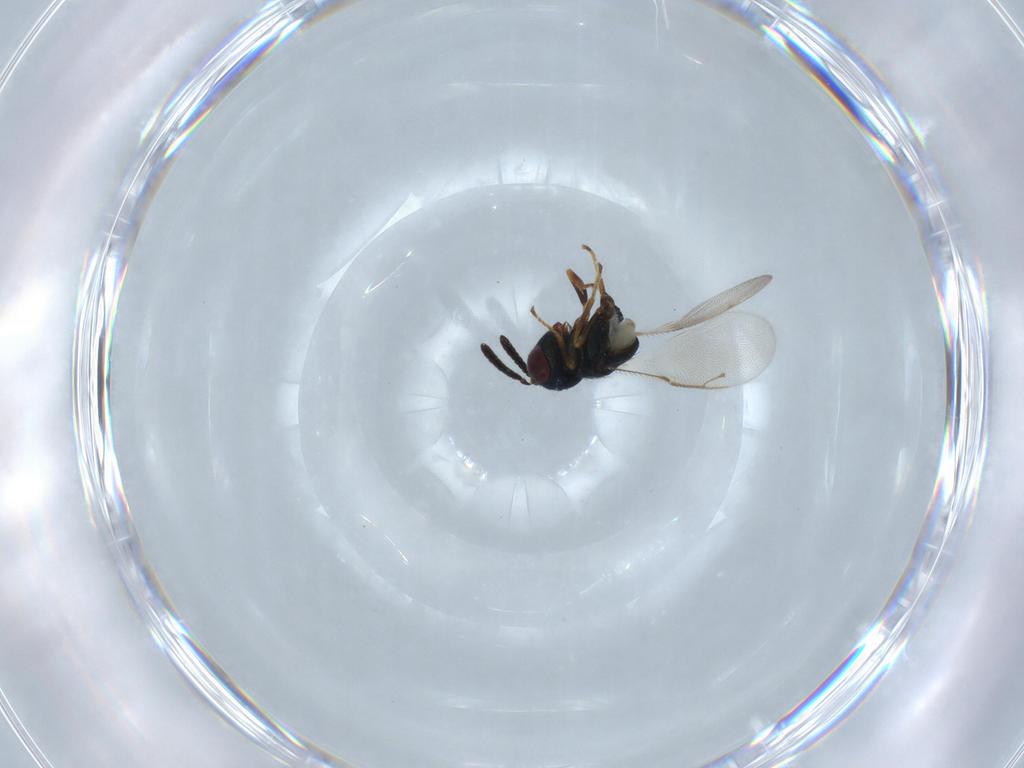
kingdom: Animalia
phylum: Arthropoda
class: Insecta
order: Hymenoptera
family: Pteromalidae
